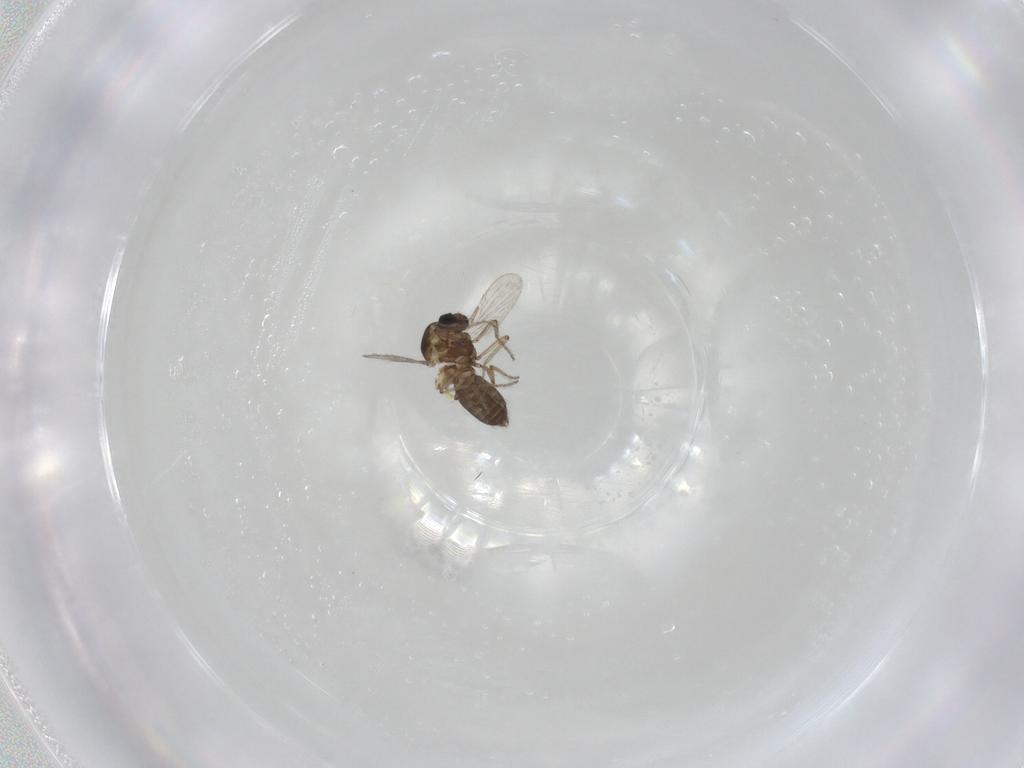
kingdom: Animalia
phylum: Arthropoda
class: Insecta
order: Diptera
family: Ceratopogonidae
